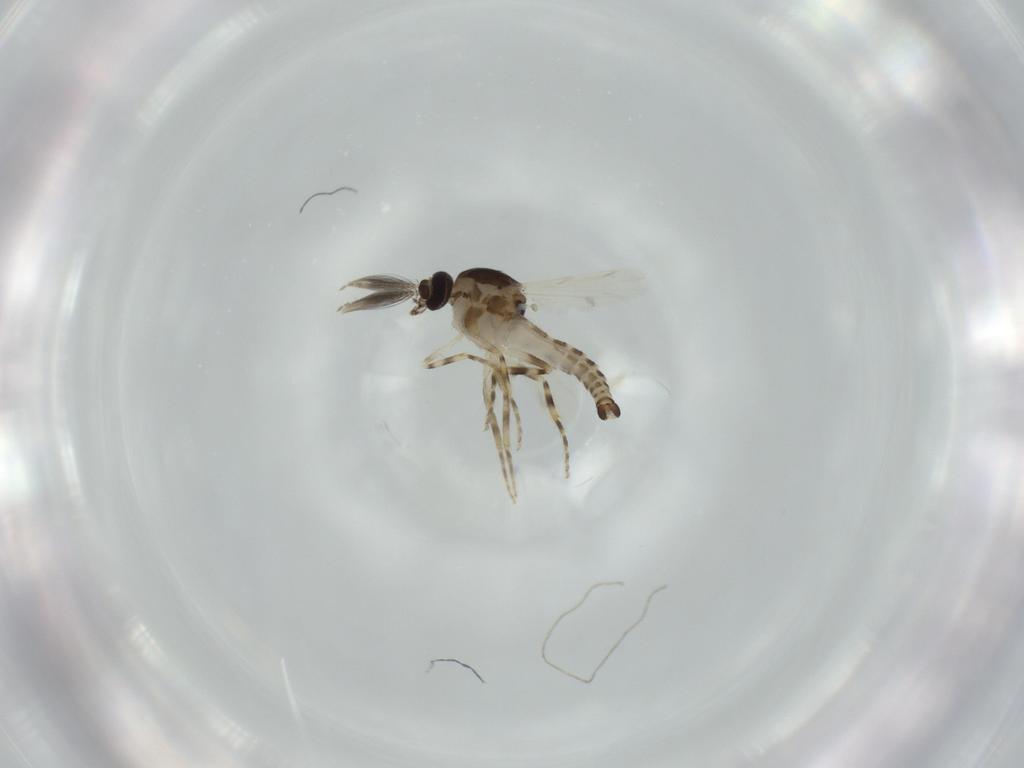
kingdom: Animalia
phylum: Arthropoda
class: Insecta
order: Diptera
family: Ceratopogonidae
